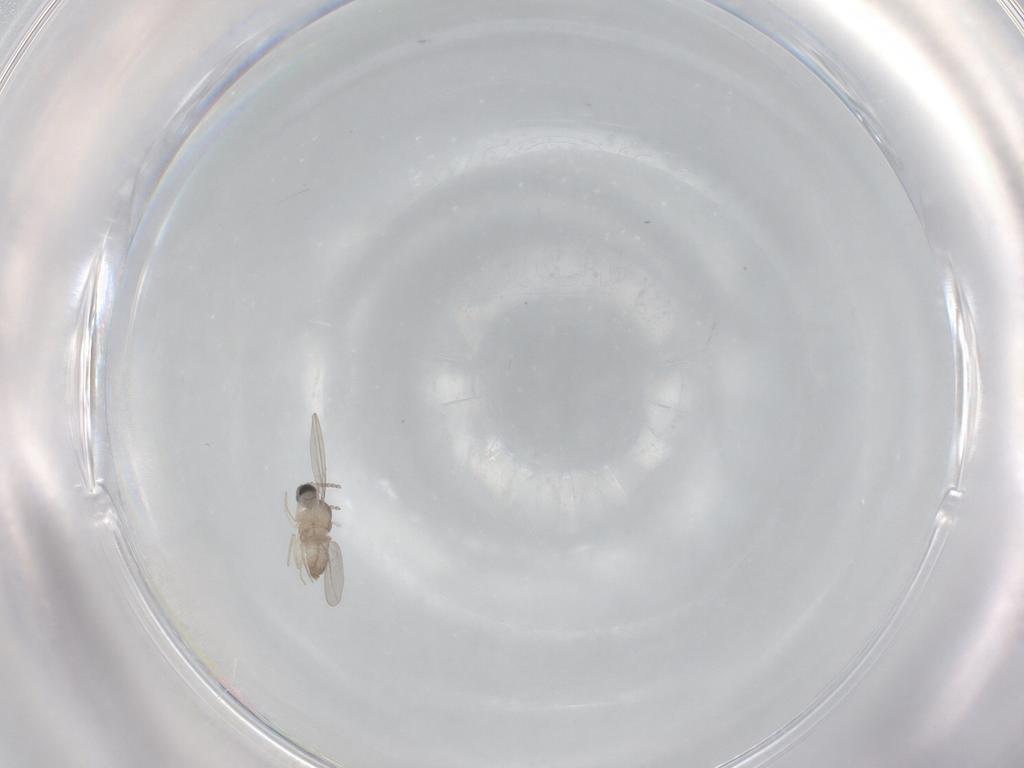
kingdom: Animalia
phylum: Arthropoda
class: Insecta
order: Diptera
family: Cecidomyiidae
